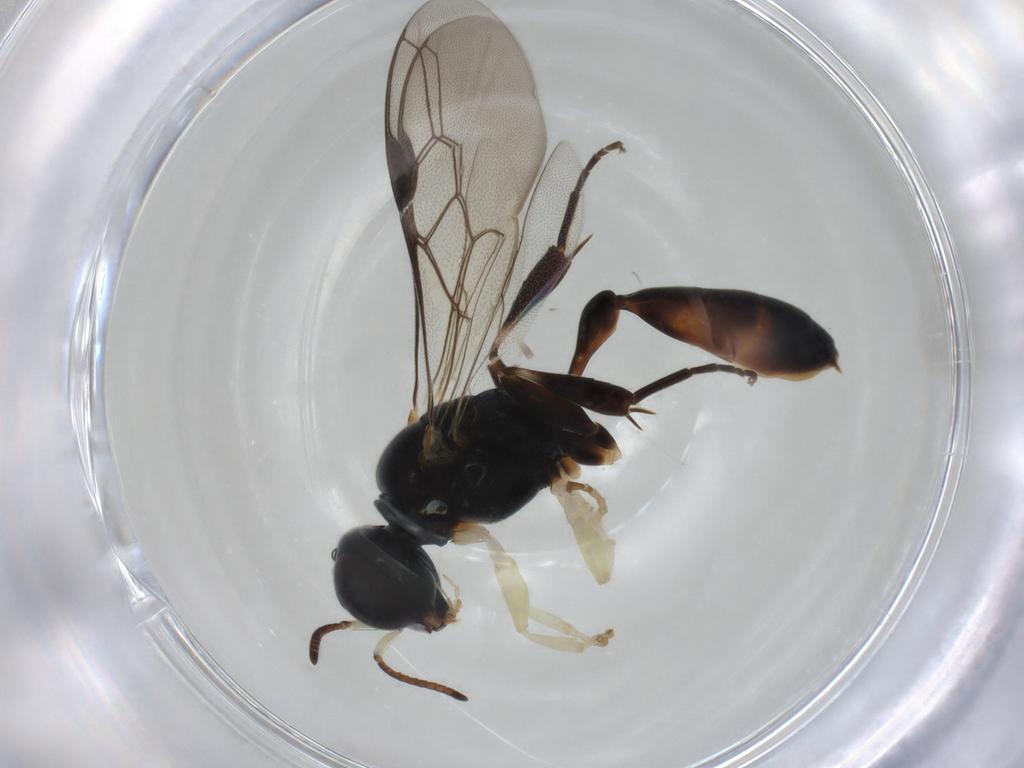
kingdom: Animalia
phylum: Arthropoda
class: Insecta
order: Hymenoptera
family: Crabronidae
